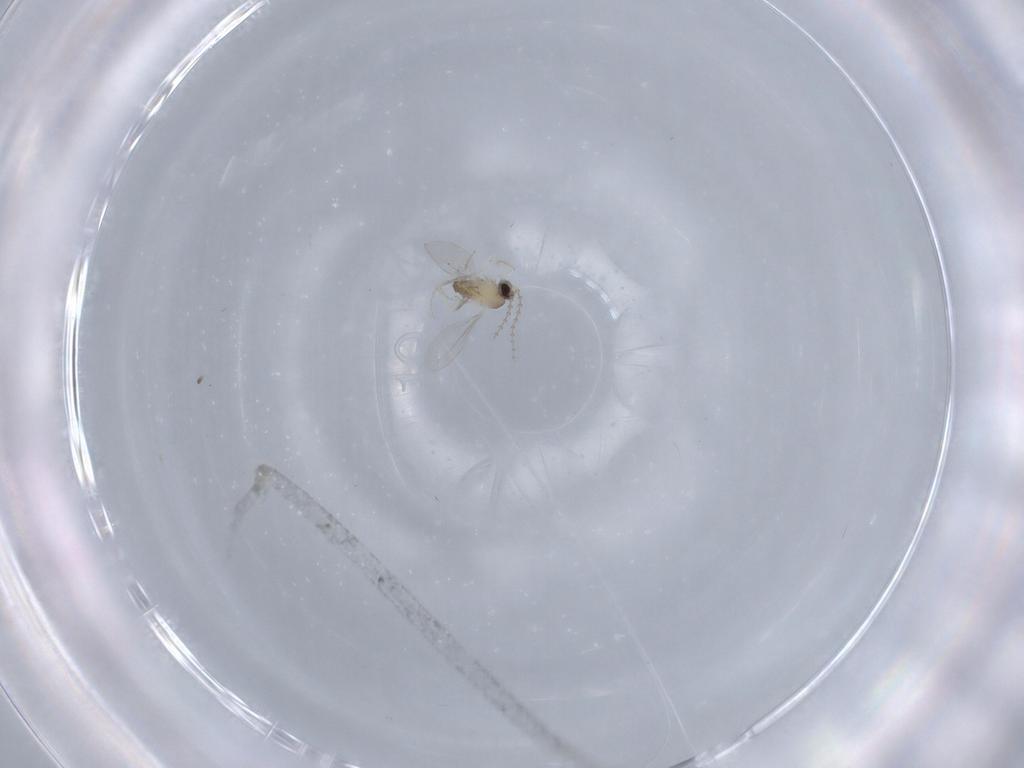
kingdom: Animalia
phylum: Arthropoda
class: Insecta
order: Diptera
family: Cecidomyiidae
